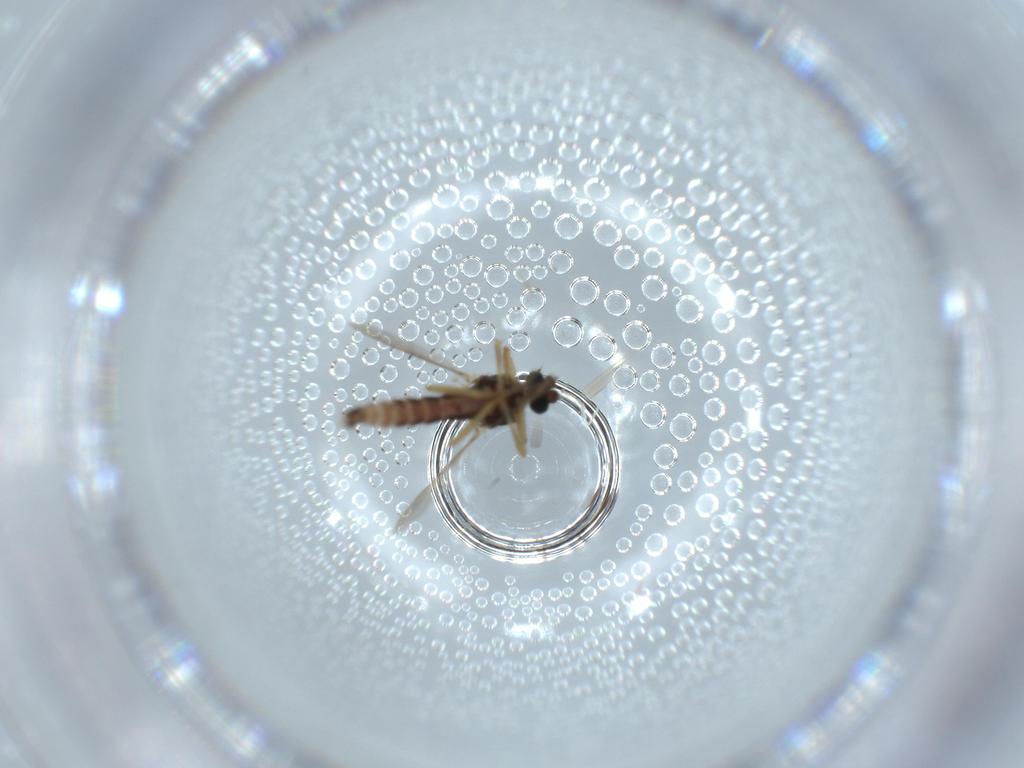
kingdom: Animalia
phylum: Arthropoda
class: Insecta
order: Diptera
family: Ceratopogonidae
